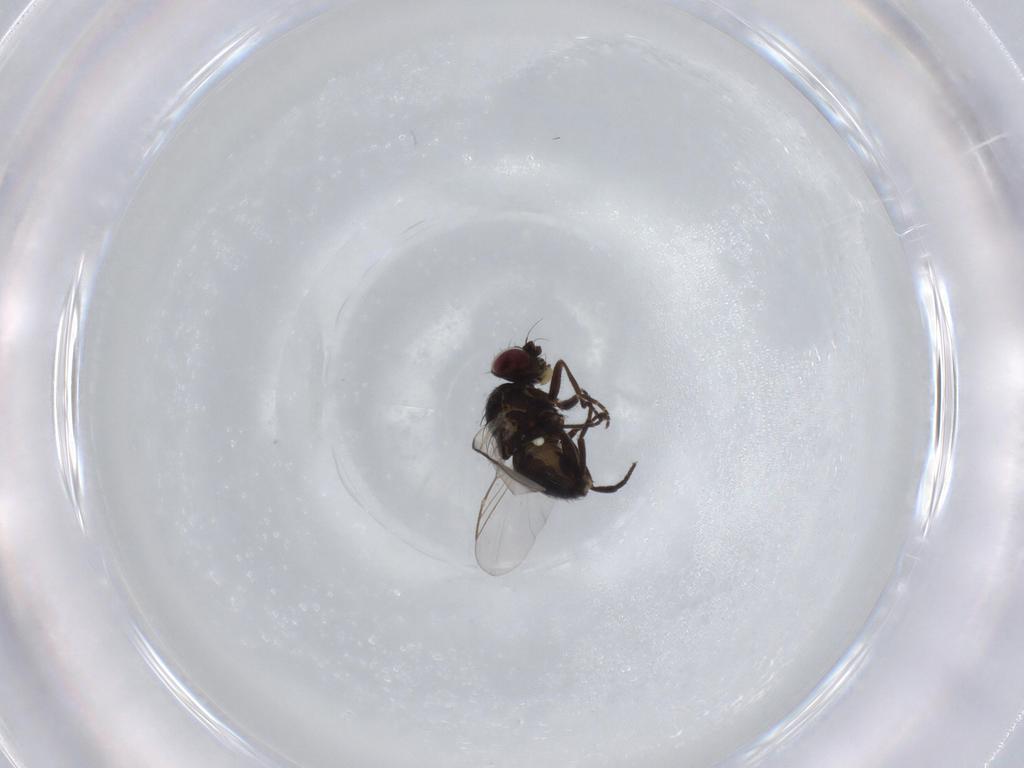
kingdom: Animalia
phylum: Arthropoda
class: Insecta
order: Diptera
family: Agromyzidae
